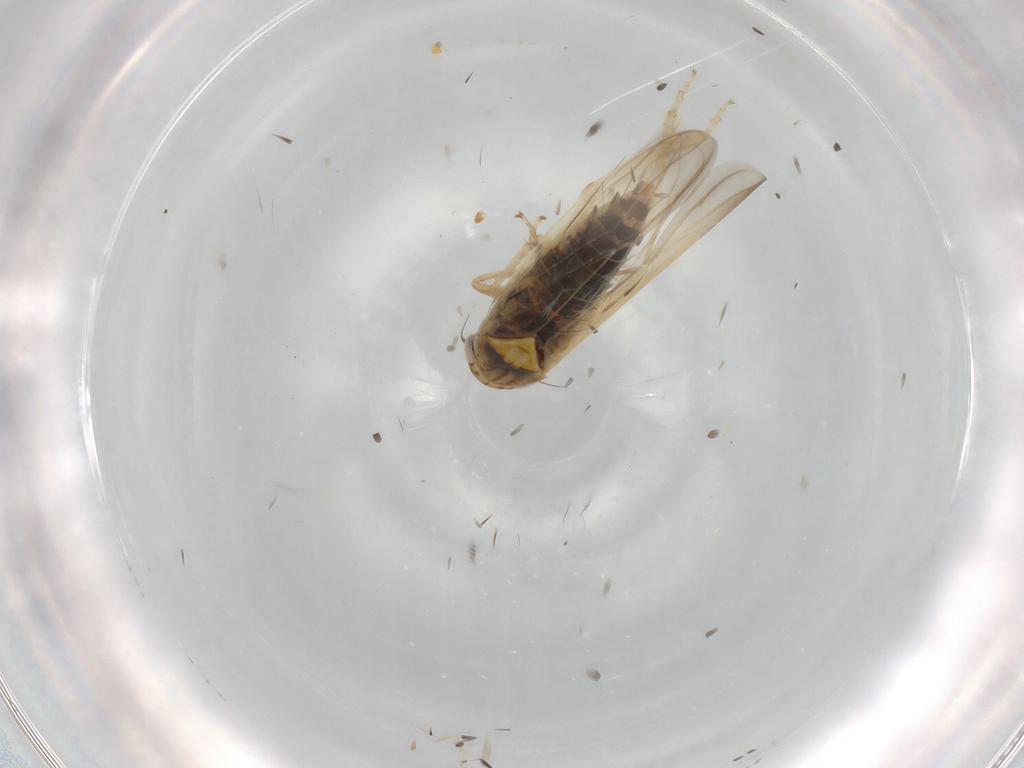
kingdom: Animalia
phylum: Arthropoda
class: Insecta
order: Hemiptera
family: Cicadellidae
